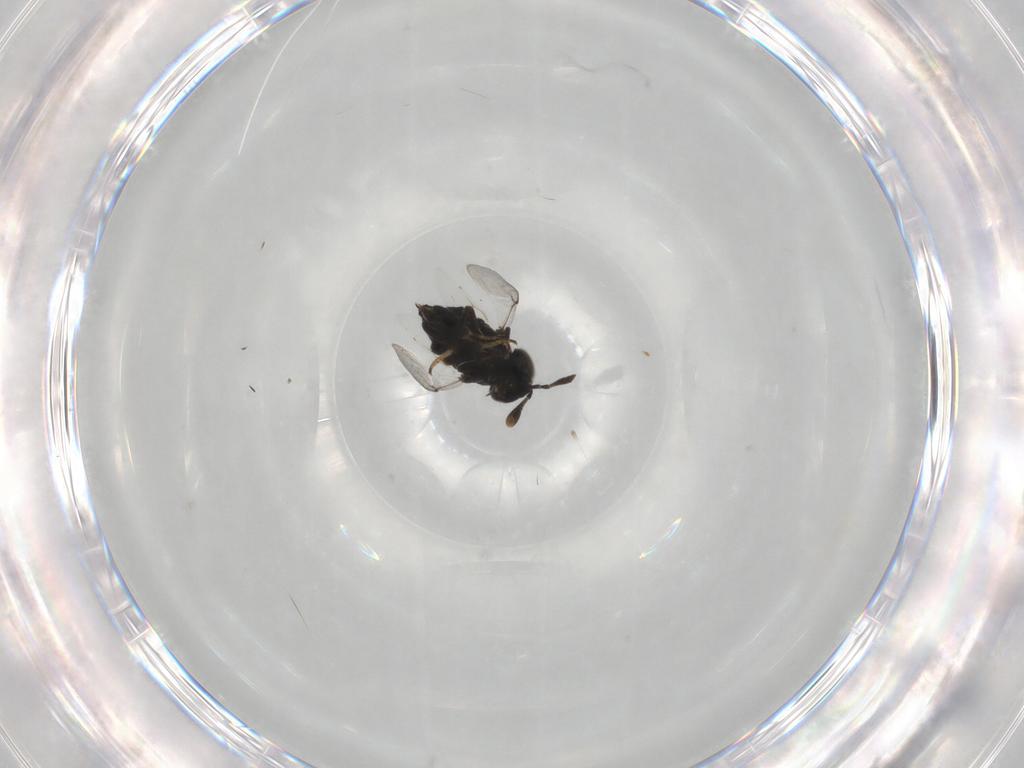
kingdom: Animalia
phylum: Arthropoda
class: Insecta
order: Hymenoptera
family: Encyrtidae
